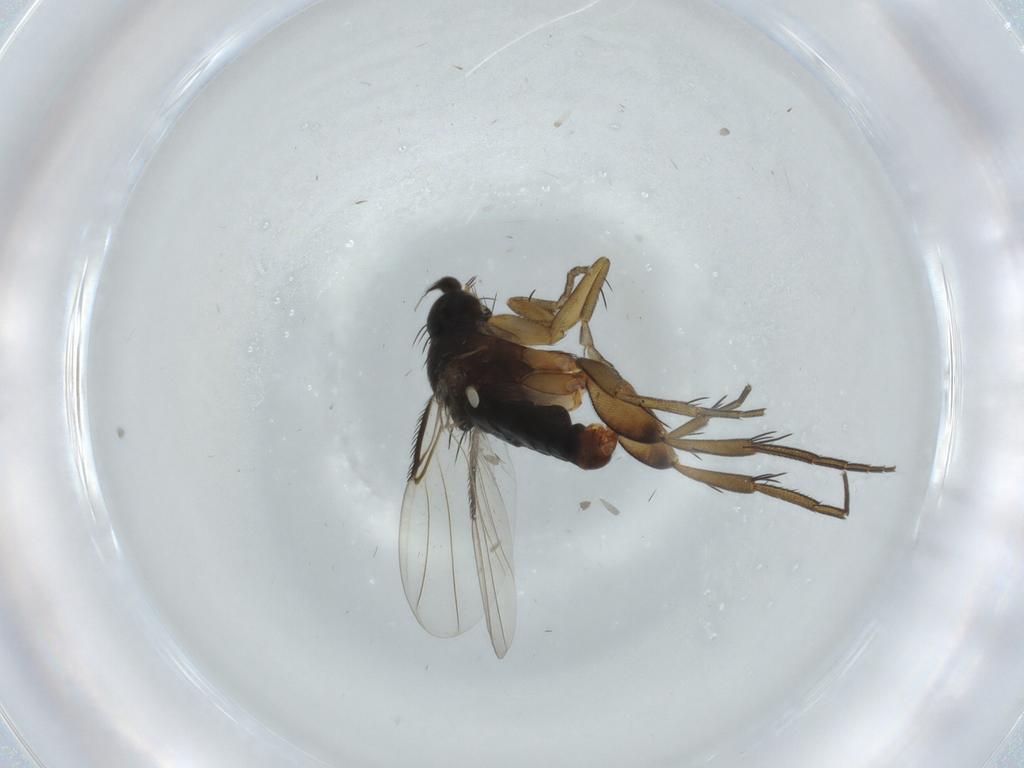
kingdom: Animalia
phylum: Arthropoda
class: Insecta
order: Diptera
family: Phoridae
